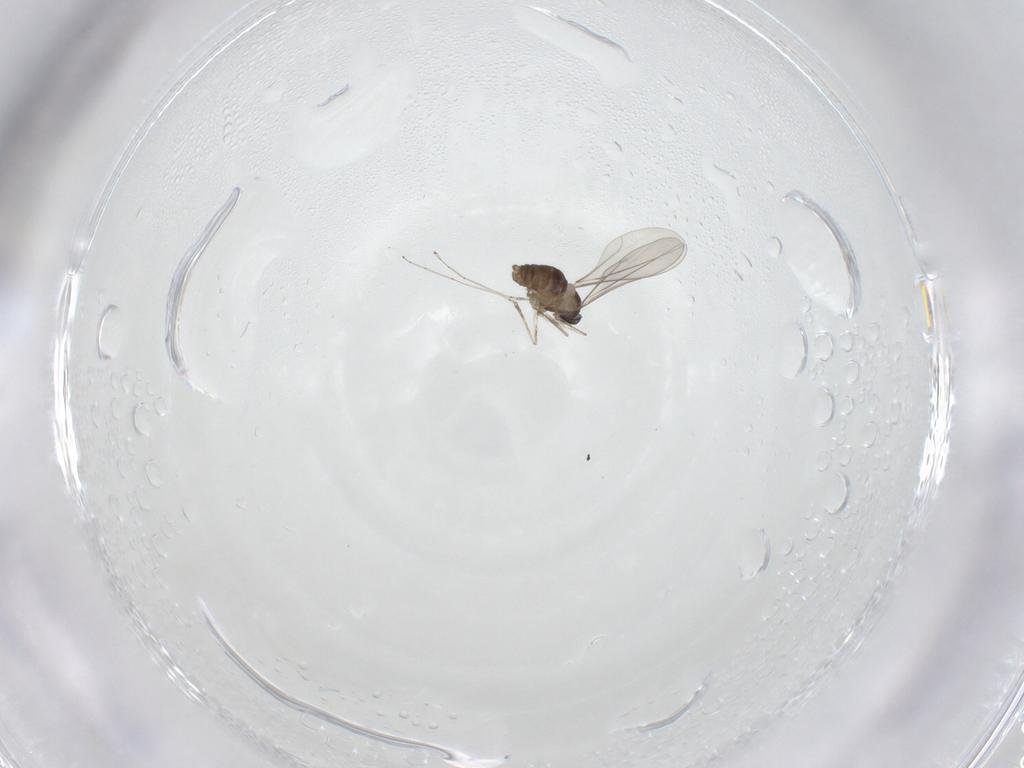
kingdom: Animalia
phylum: Arthropoda
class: Insecta
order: Diptera
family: Cecidomyiidae
